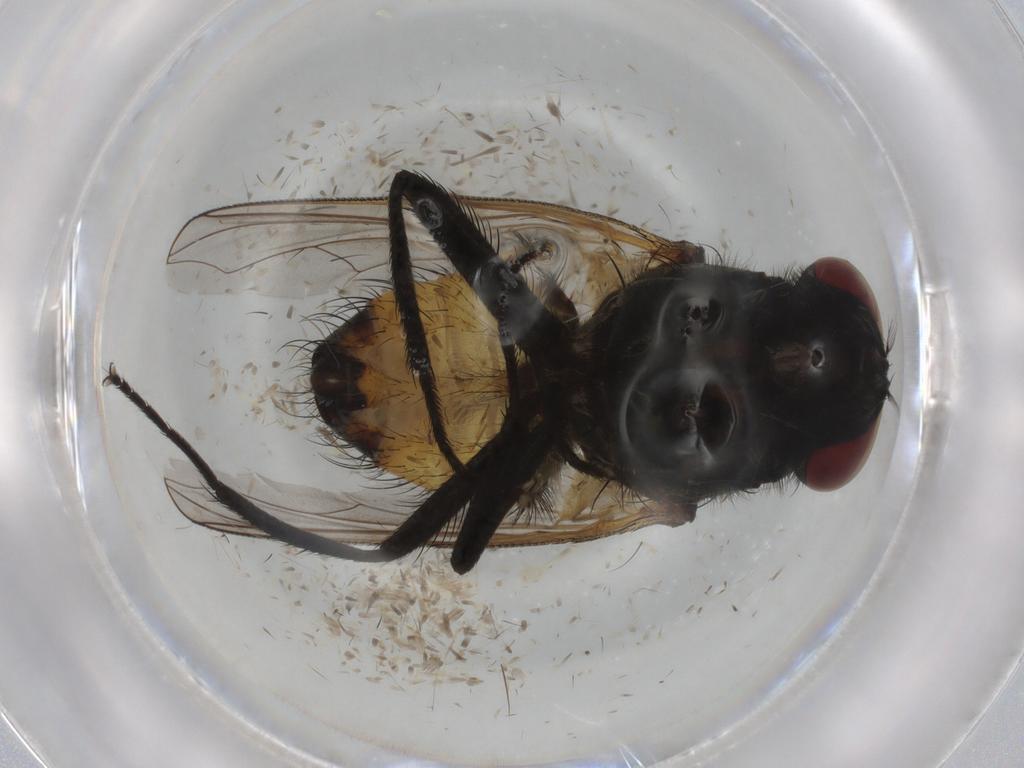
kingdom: Animalia
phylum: Arthropoda
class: Insecta
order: Diptera
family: Muscidae
